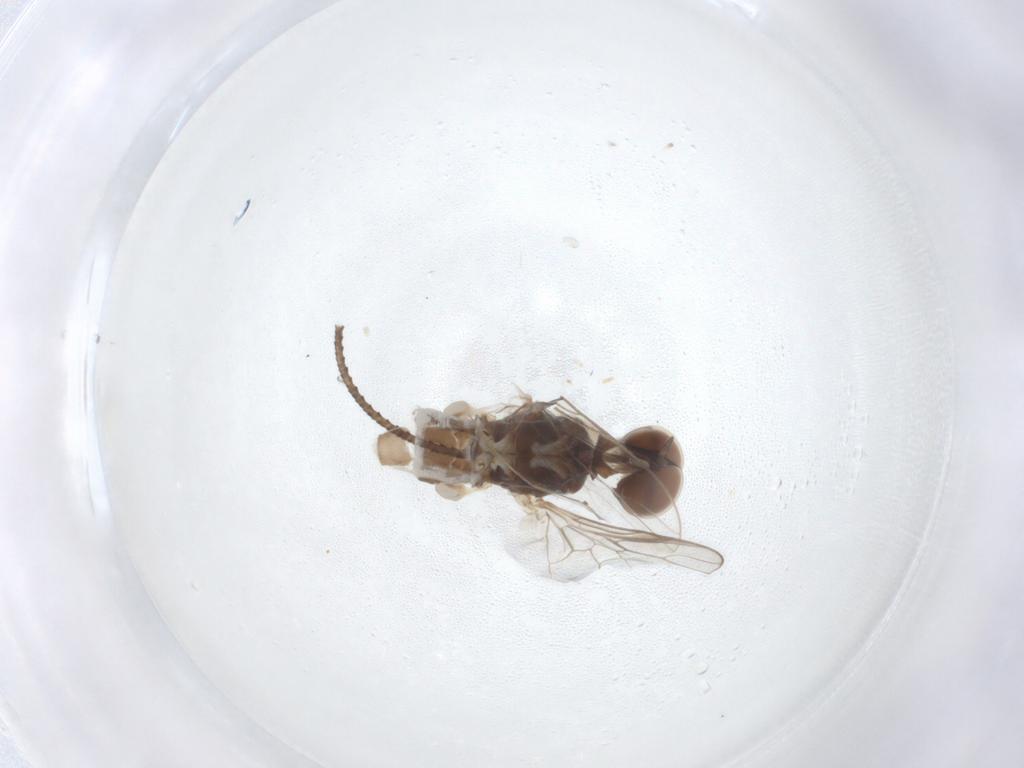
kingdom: Animalia
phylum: Arthropoda
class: Insecta
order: Diptera
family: Scenopinidae
